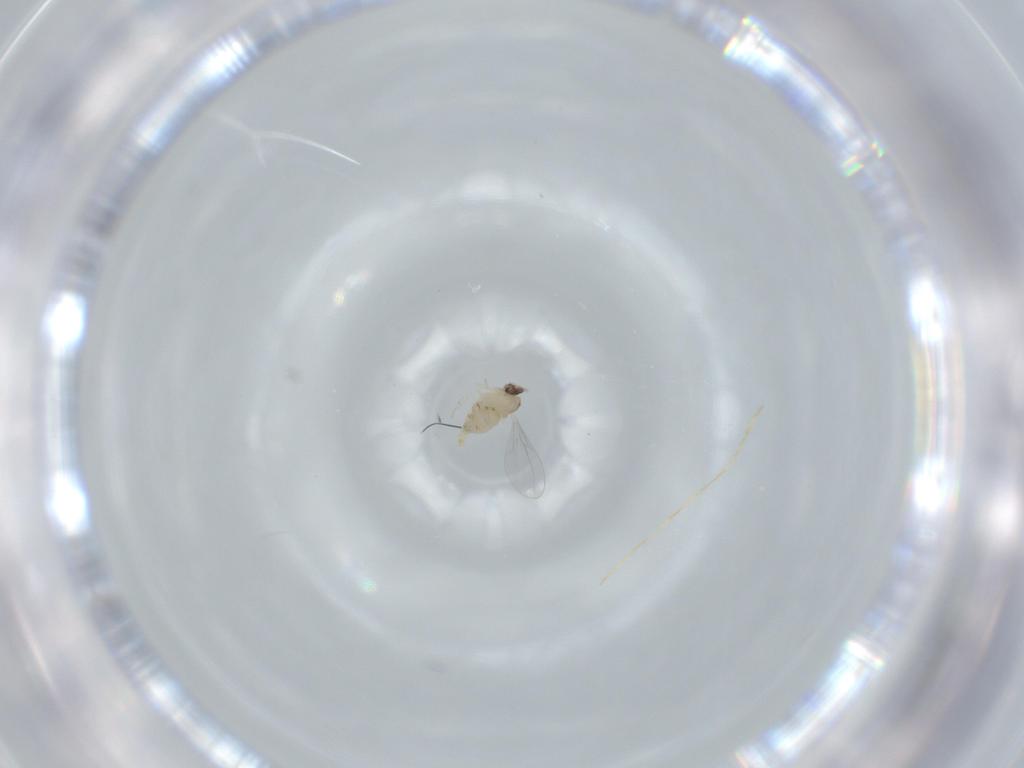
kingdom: Animalia
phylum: Arthropoda
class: Insecta
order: Diptera
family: Cecidomyiidae
